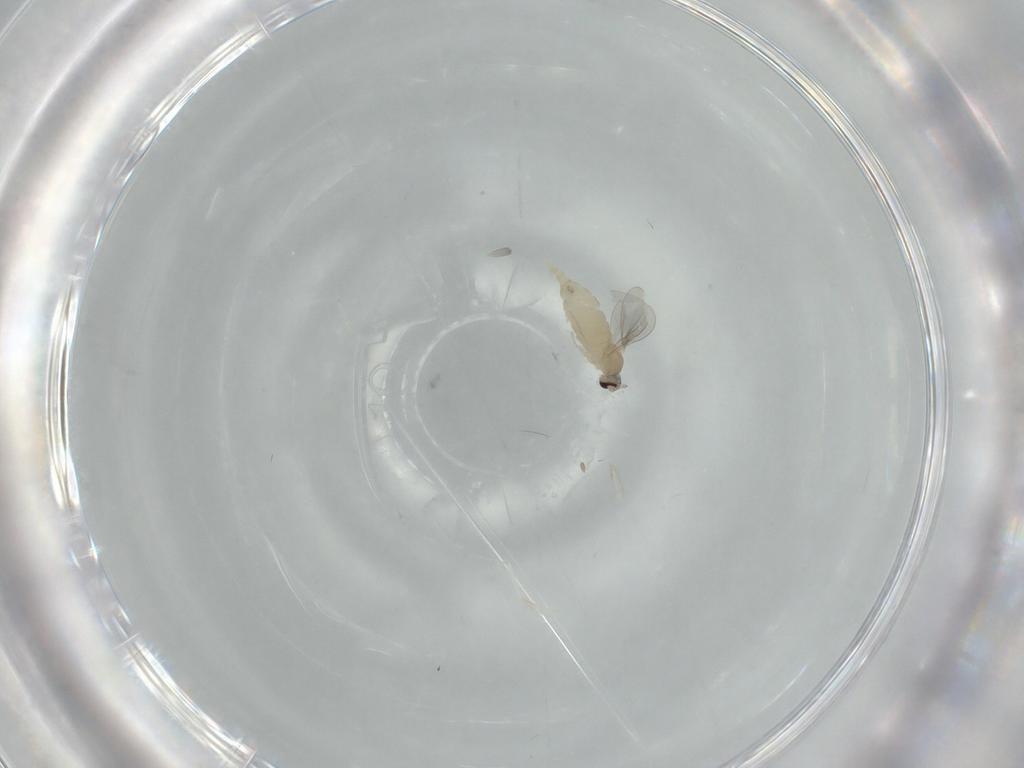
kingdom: Animalia
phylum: Arthropoda
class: Insecta
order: Diptera
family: Cecidomyiidae
